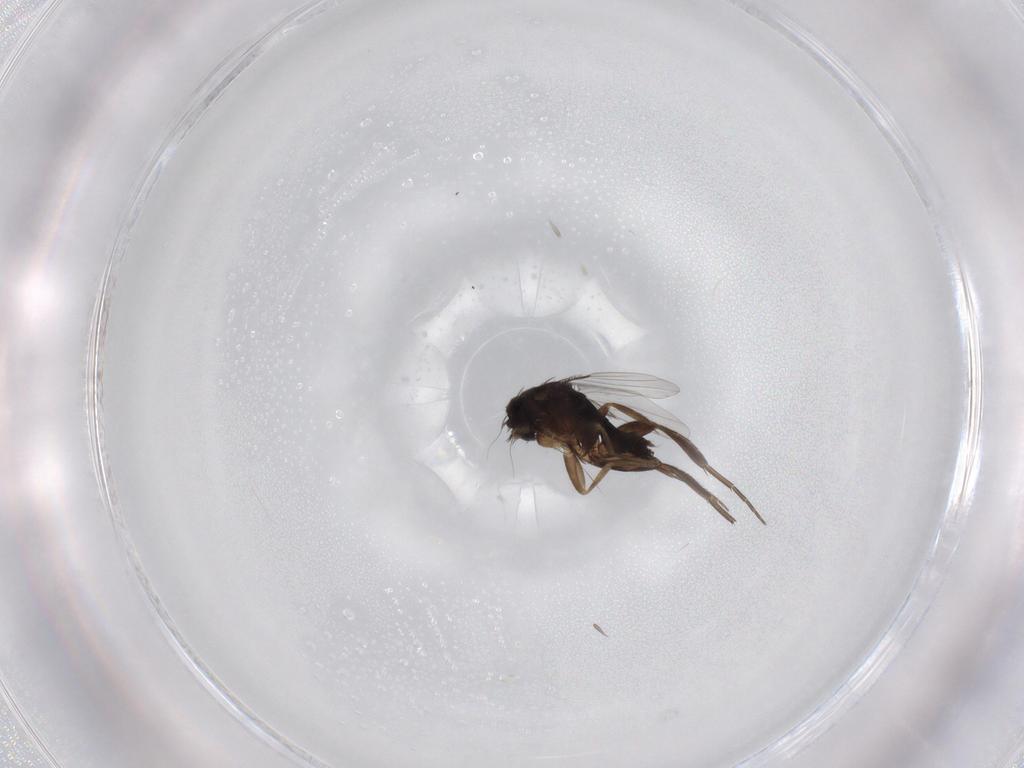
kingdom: Animalia
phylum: Arthropoda
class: Insecta
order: Diptera
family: Phoridae
